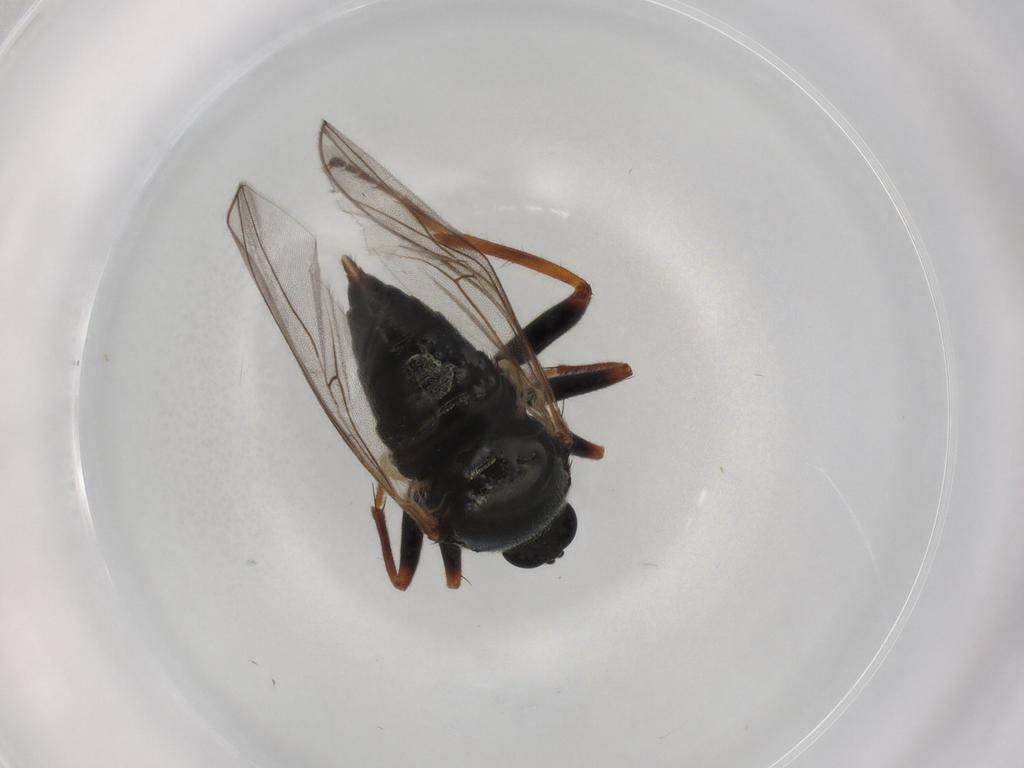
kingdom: Animalia
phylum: Arthropoda
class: Insecta
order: Diptera
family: Hybotidae
